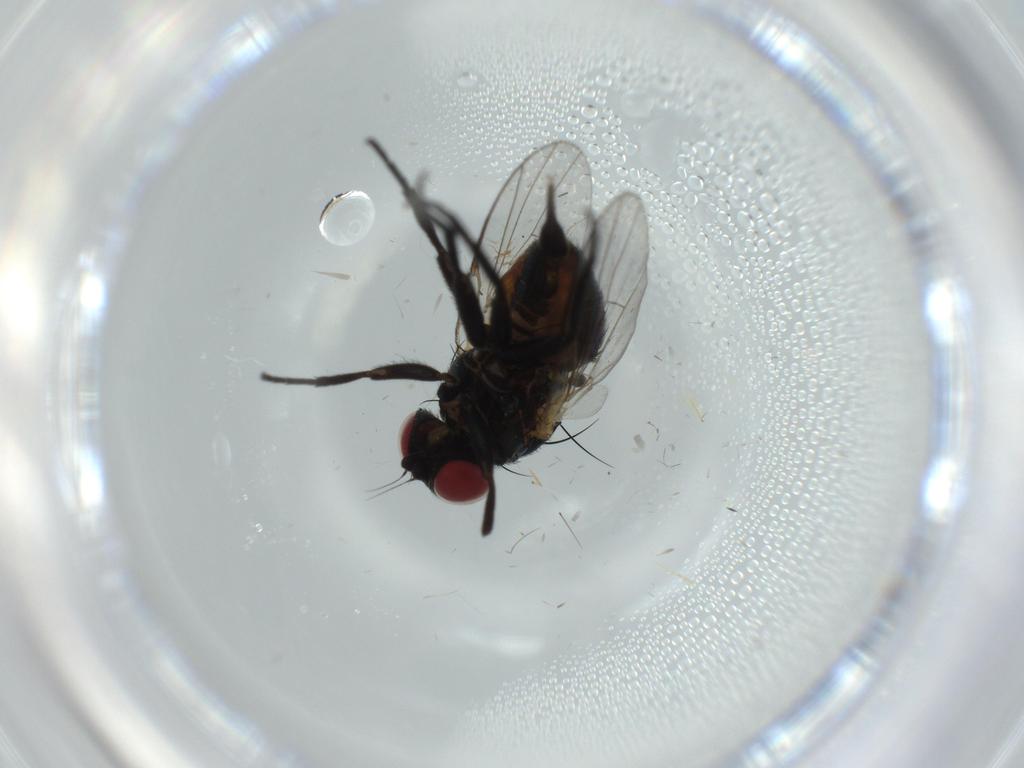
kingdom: Animalia
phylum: Arthropoda
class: Insecta
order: Diptera
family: Agromyzidae
